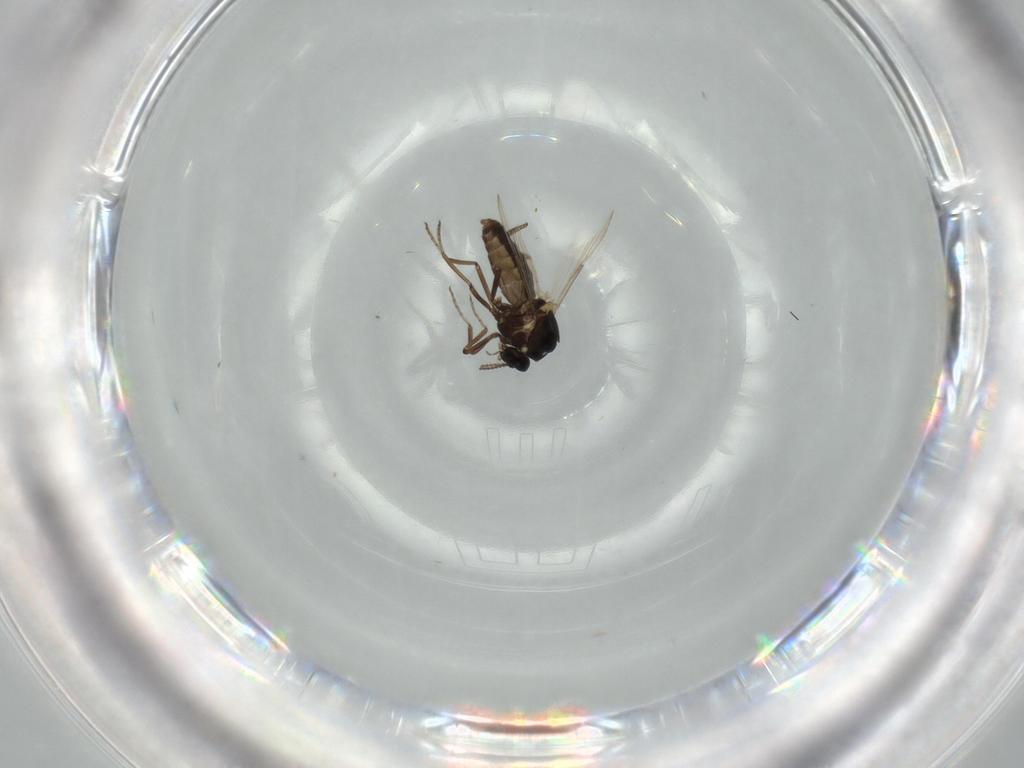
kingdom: Animalia
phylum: Arthropoda
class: Insecta
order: Diptera
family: Ceratopogonidae
